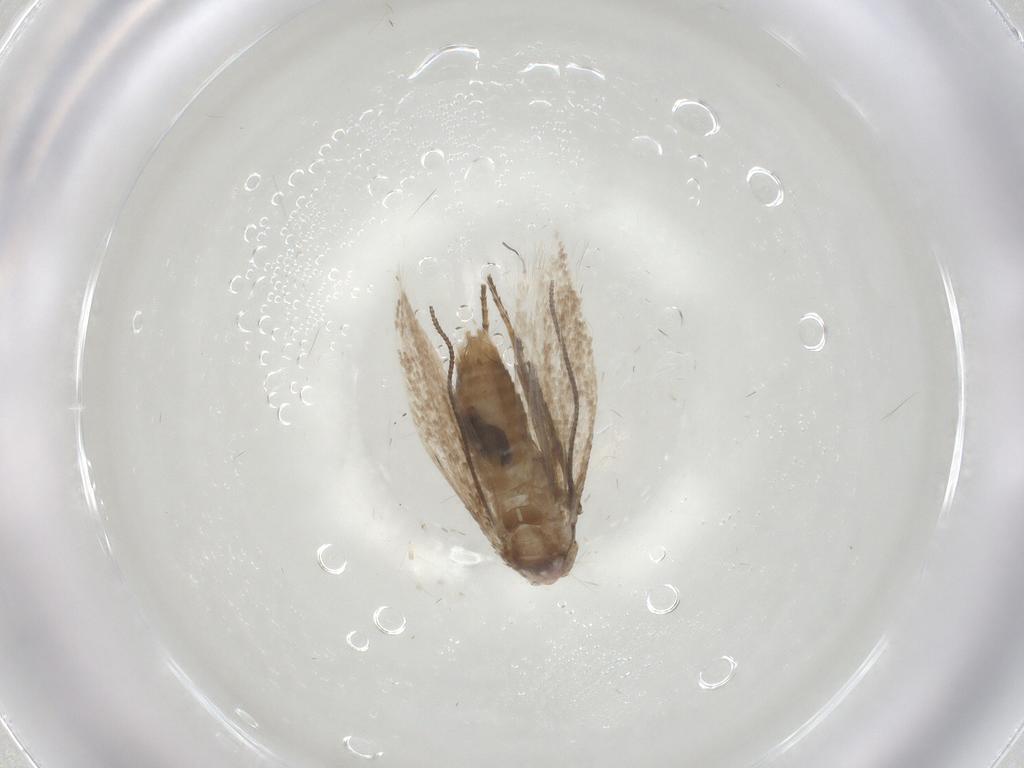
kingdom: Animalia
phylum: Arthropoda
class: Insecta
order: Lepidoptera
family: Bucculatricidae
